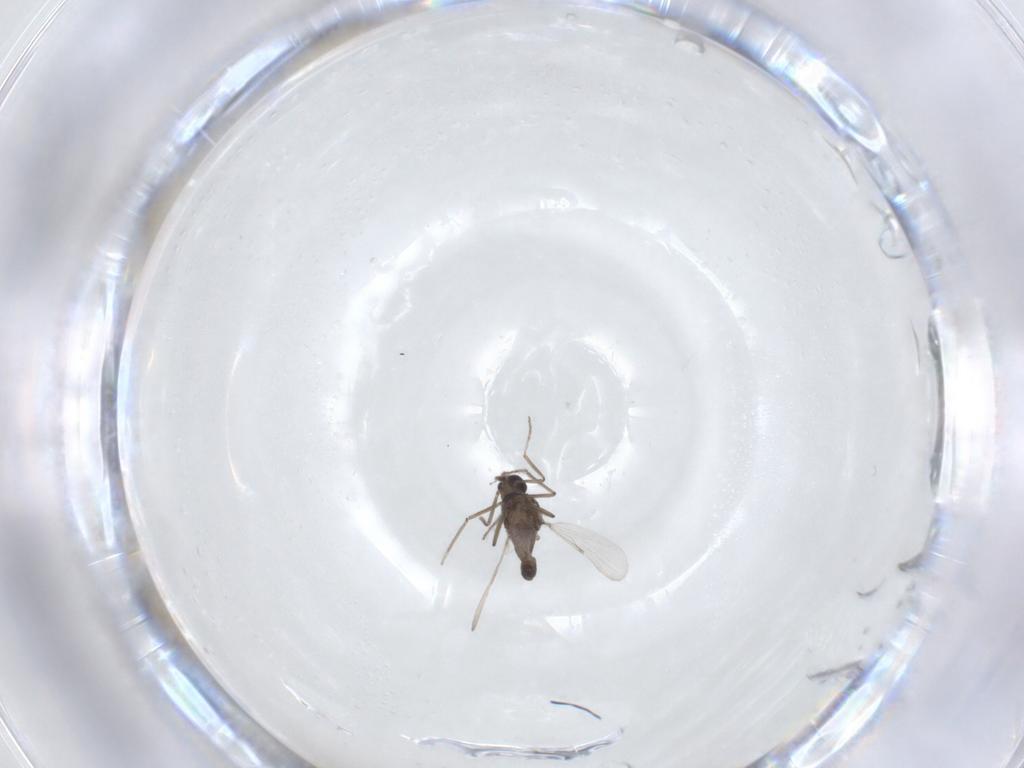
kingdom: Animalia
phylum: Arthropoda
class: Insecta
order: Diptera
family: Ceratopogonidae
